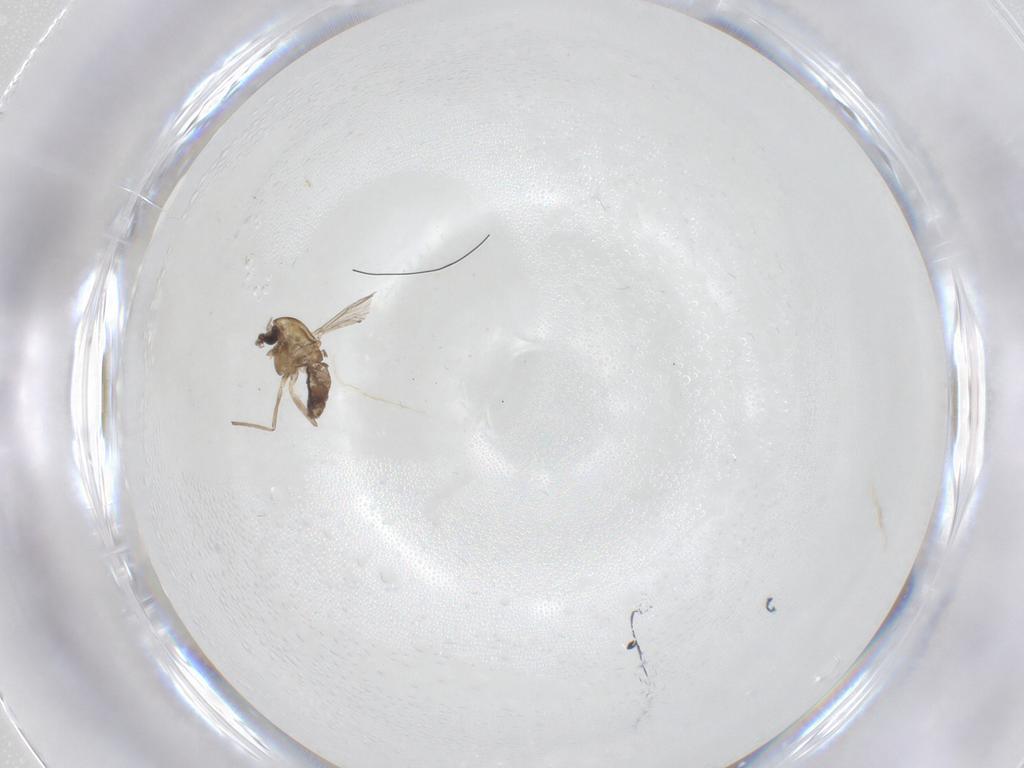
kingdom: Animalia
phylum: Arthropoda
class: Insecta
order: Diptera
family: Chironomidae
